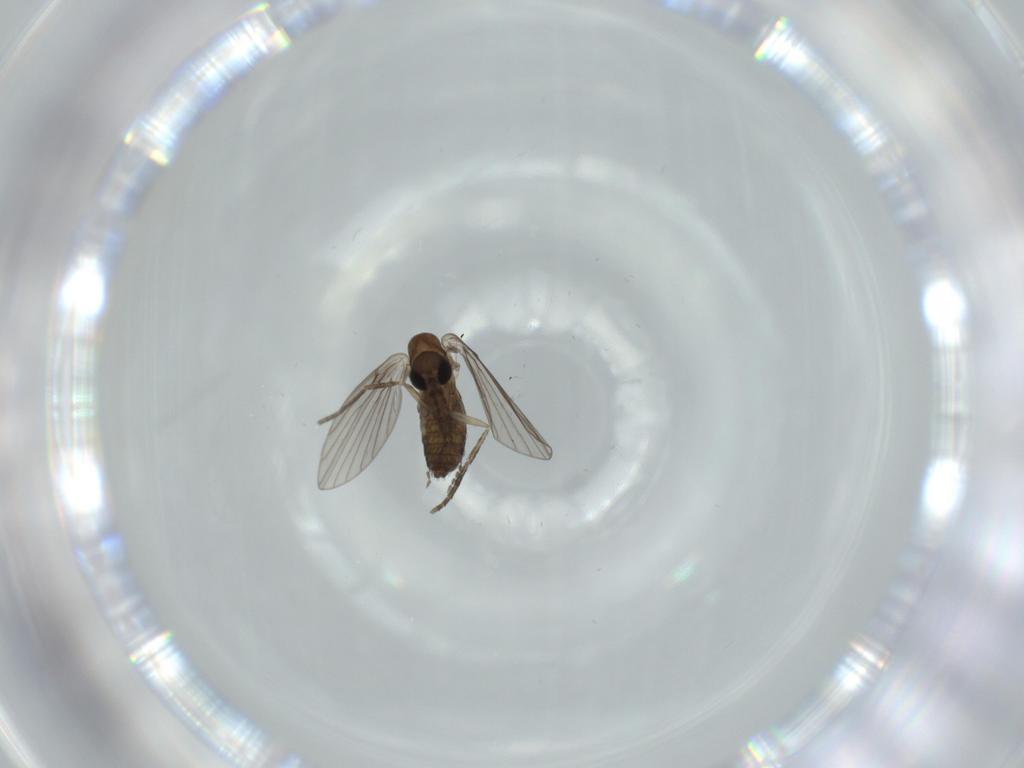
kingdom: Animalia
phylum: Arthropoda
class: Insecta
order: Diptera
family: Psychodidae
